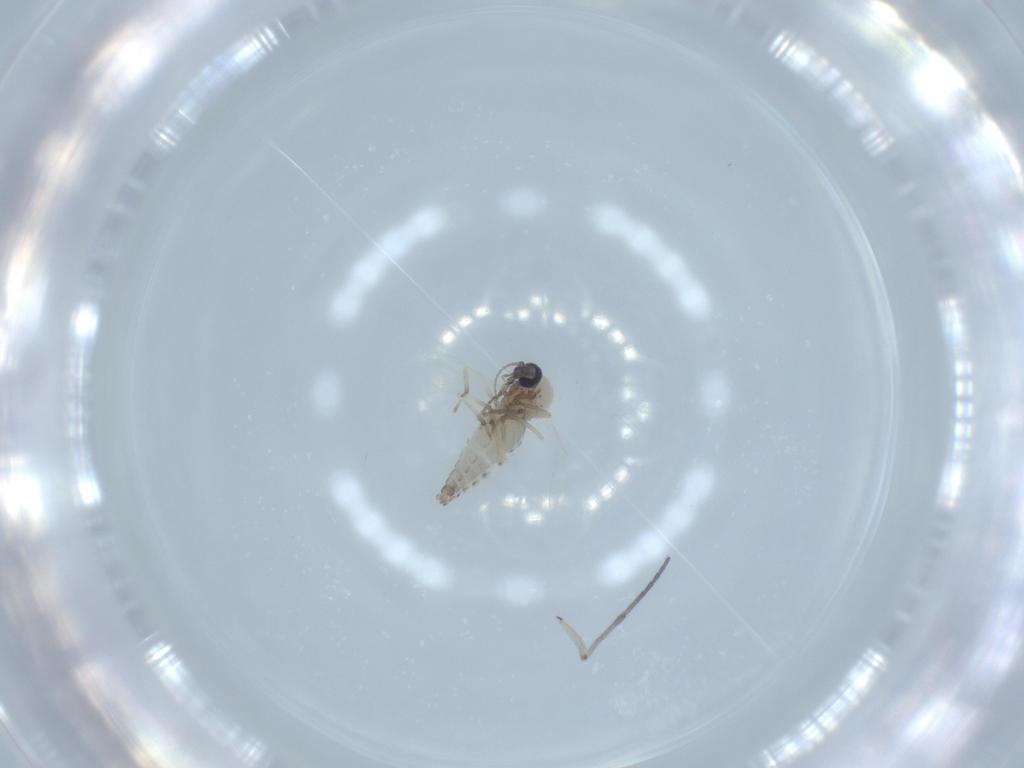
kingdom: Animalia
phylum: Arthropoda
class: Insecta
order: Diptera
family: Sciaridae
